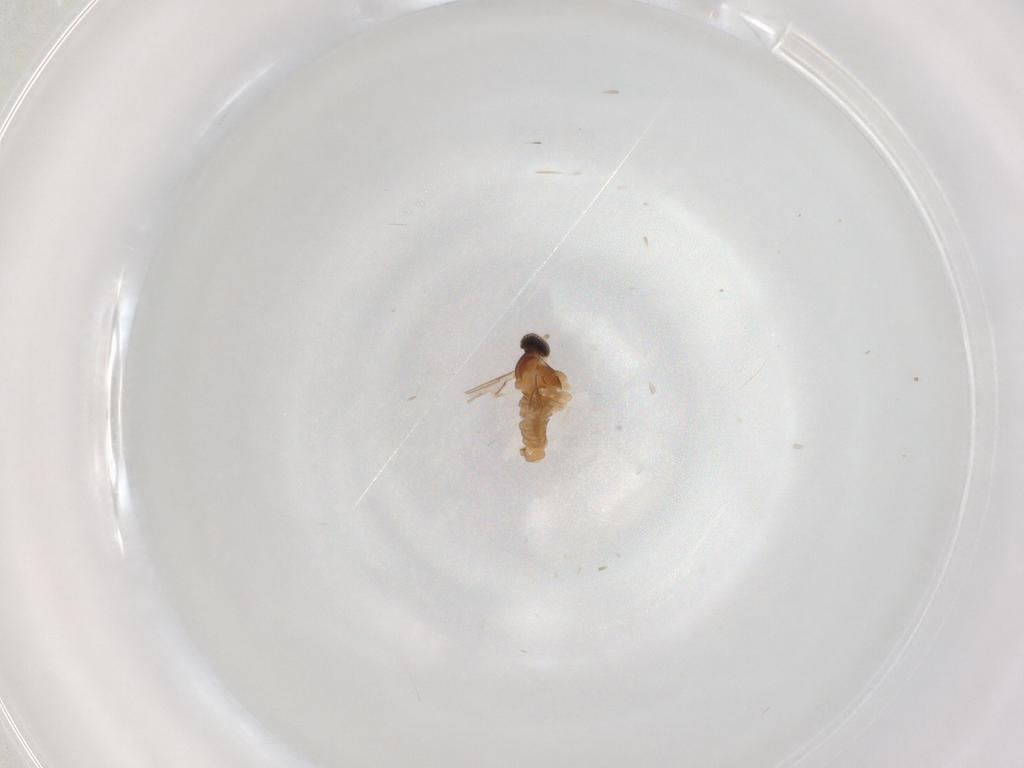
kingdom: Animalia
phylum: Arthropoda
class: Insecta
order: Diptera
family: Cecidomyiidae
